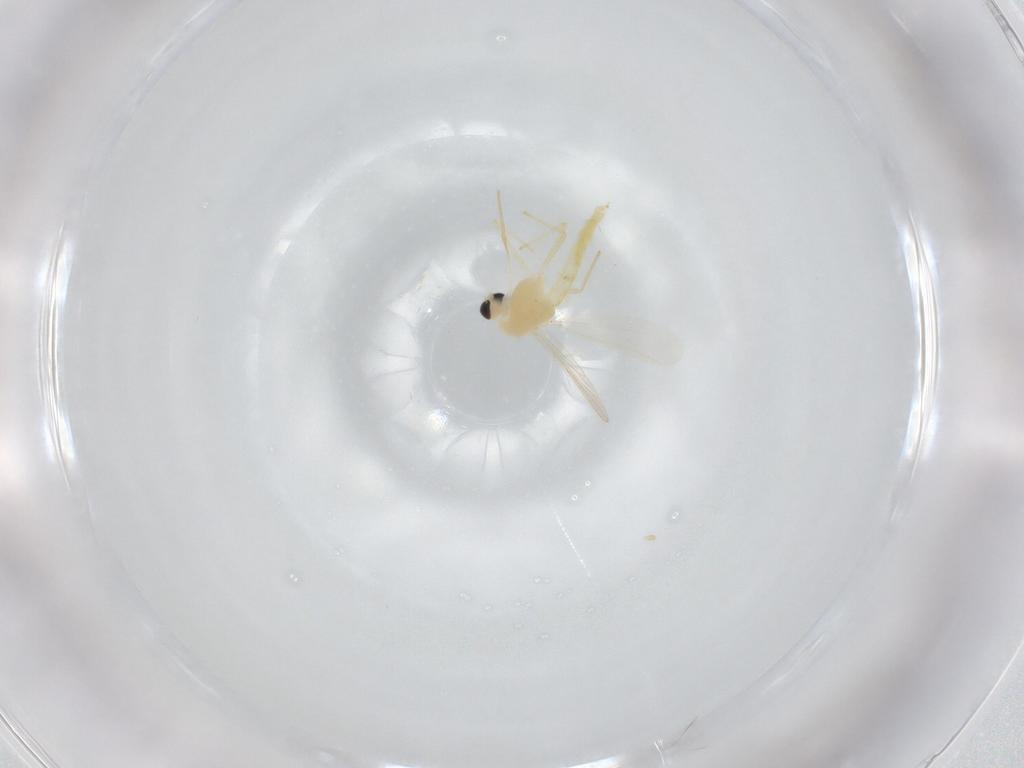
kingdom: Animalia
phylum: Arthropoda
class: Insecta
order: Diptera
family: Chironomidae
